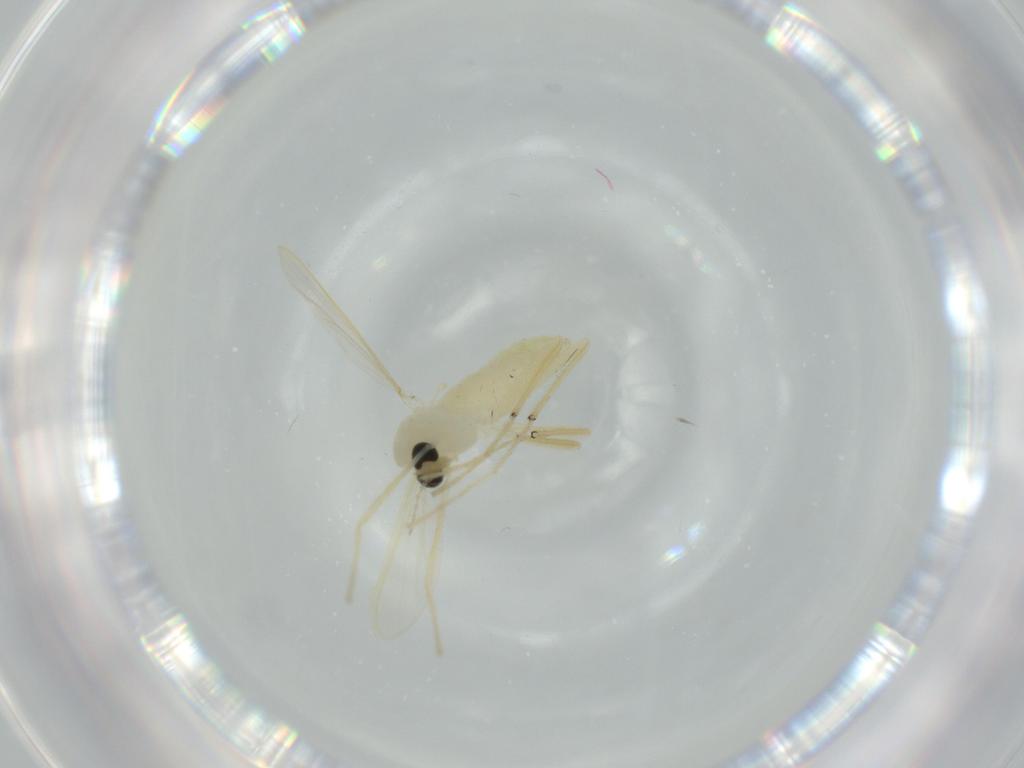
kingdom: Animalia
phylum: Arthropoda
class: Insecta
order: Diptera
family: Chironomidae
